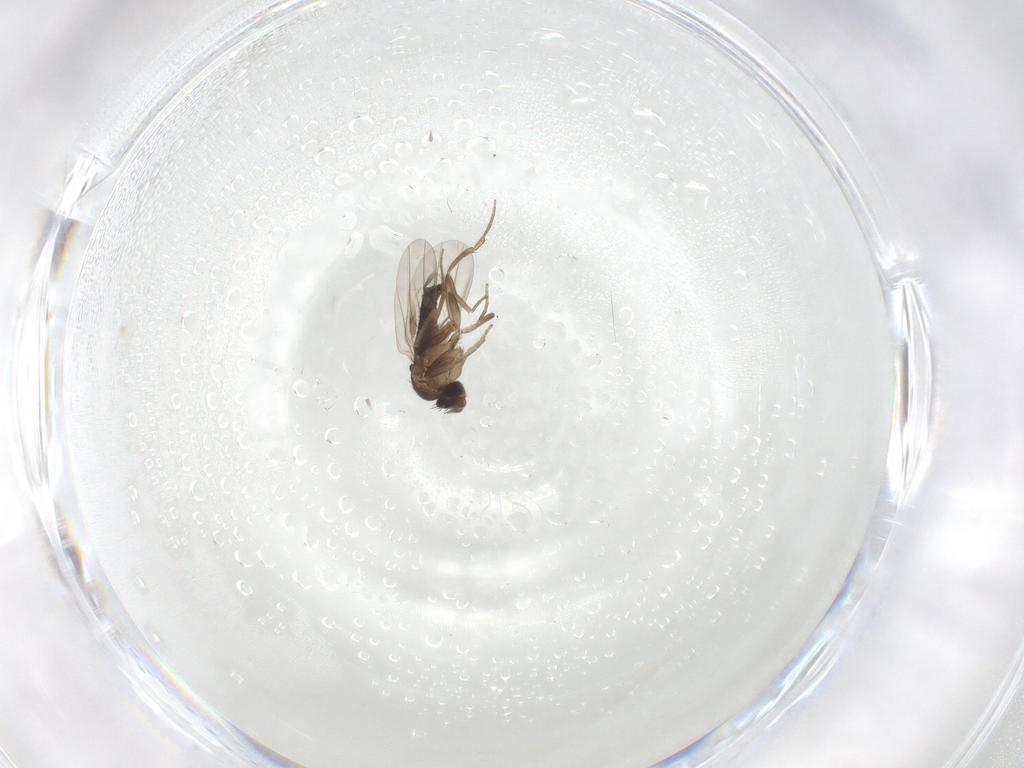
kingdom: Animalia
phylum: Arthropoda
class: Insecta
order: Diptera
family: Phoridae
